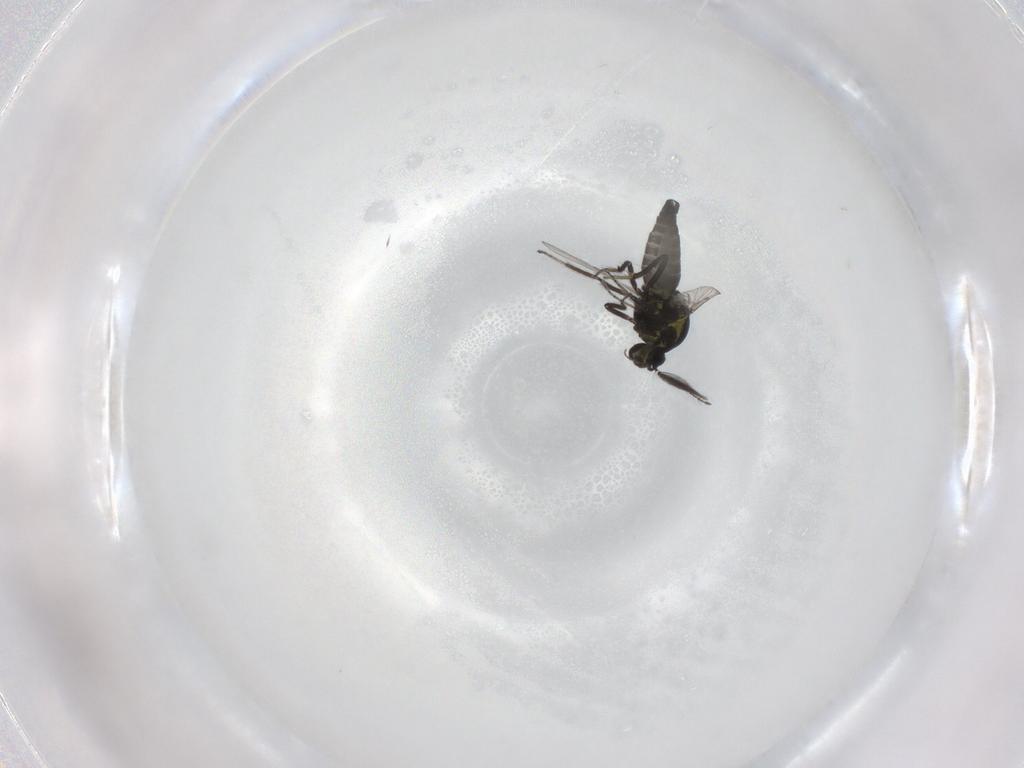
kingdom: Animalia
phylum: Arthropoda
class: Insecta
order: Diptera
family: Ceratopogonidae
